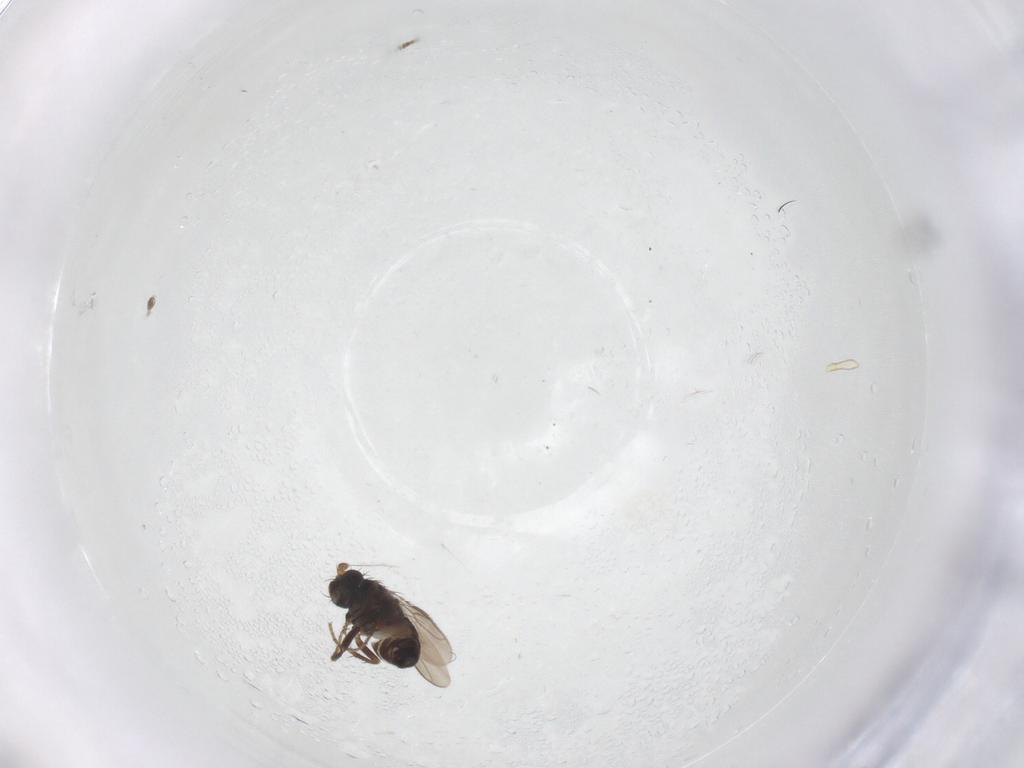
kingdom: Animalia
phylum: Arthropoda
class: Insecta
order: Diptera
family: Sphaeroceridae
